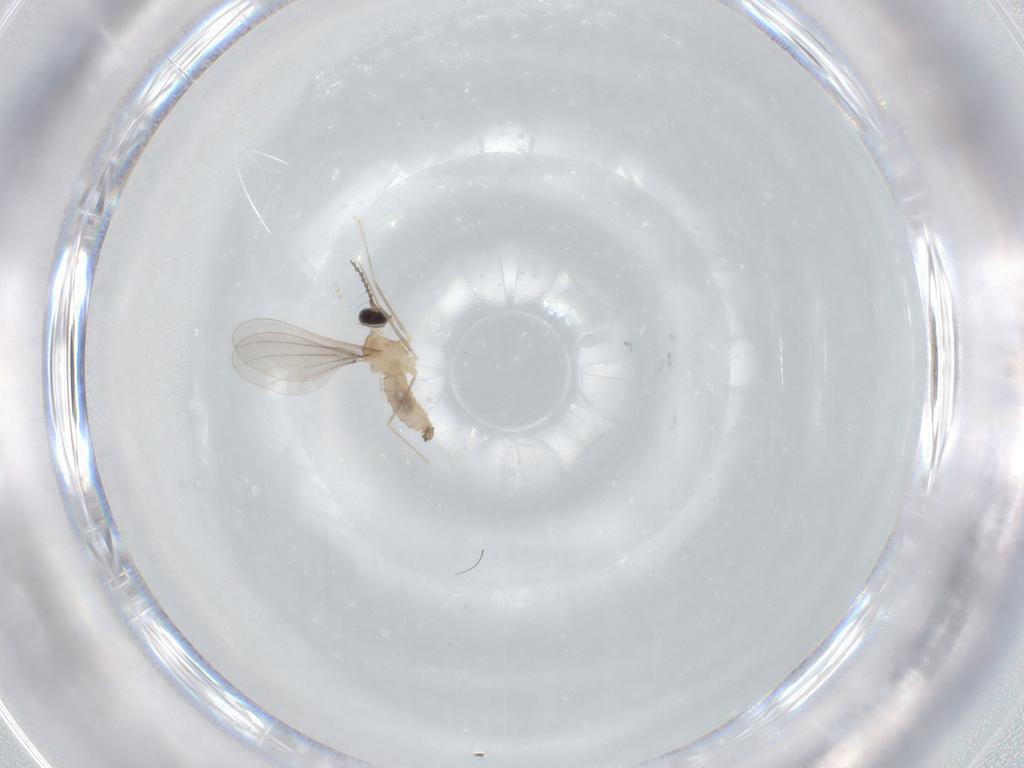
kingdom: Animalia
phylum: Arthropoda
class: Insecta
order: Diptera
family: Cecidomyiidae
